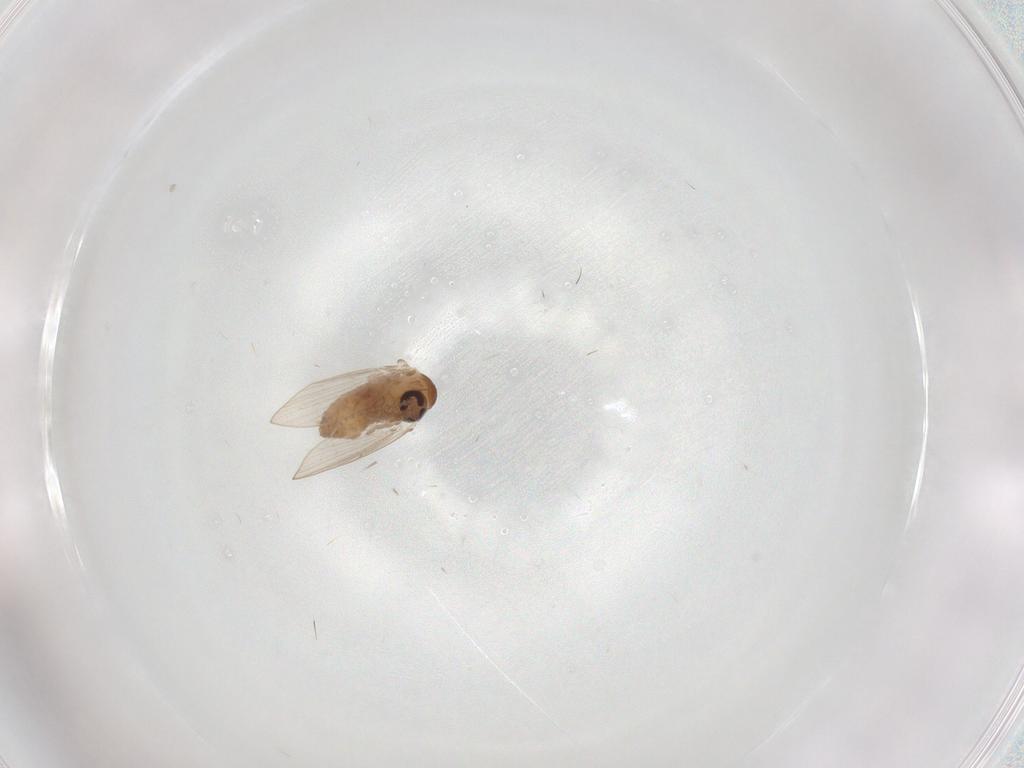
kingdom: Animalia
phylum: Arthropoda
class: Insecta
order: Diptera
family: Psychodidae
